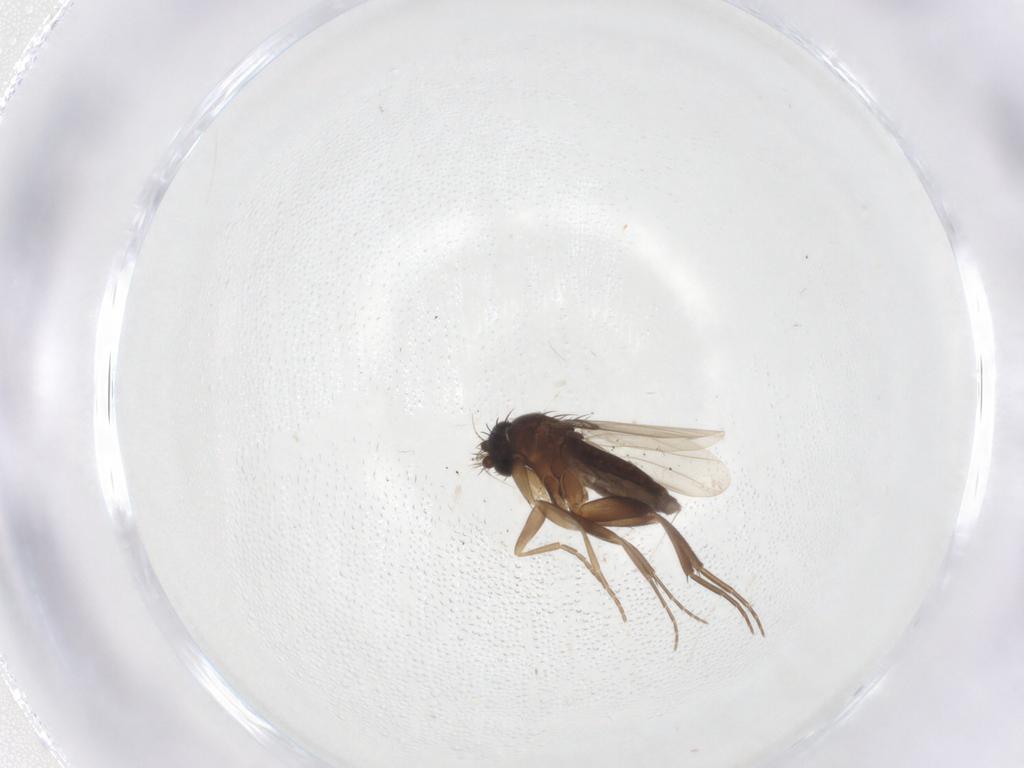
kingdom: Animalia
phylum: Arthropoda
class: Insecta
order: Diptera
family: Phoridae
